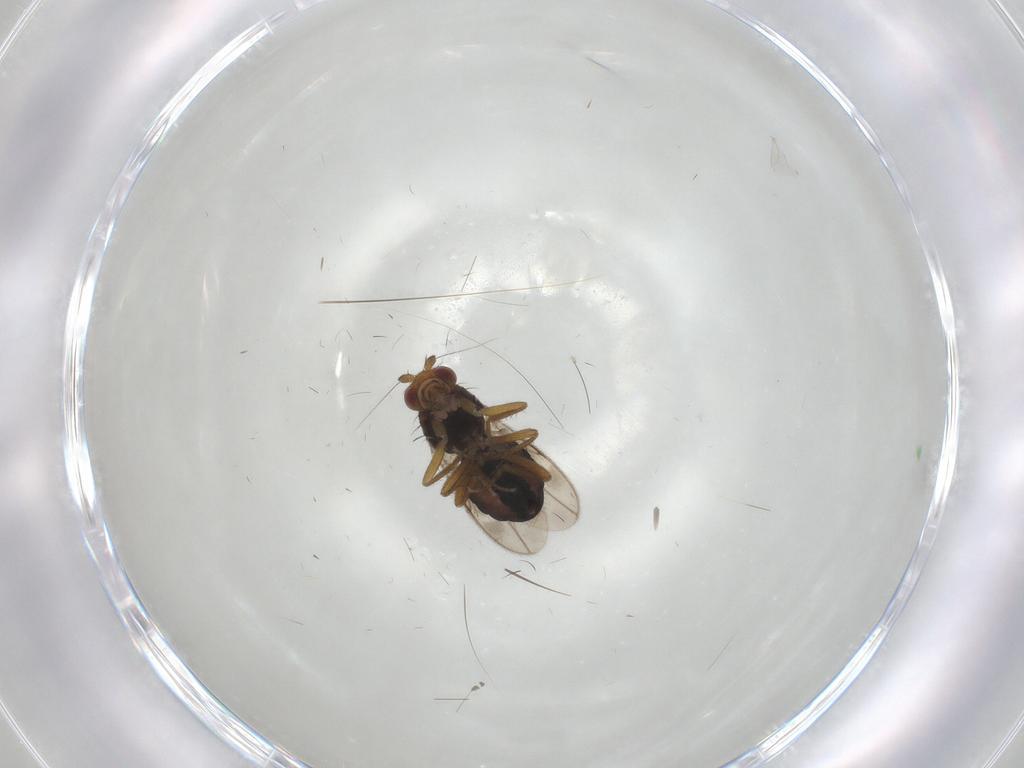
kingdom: Animalia
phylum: Arthropoda
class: Insecta
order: Diptera
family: Sphaeroceridae
